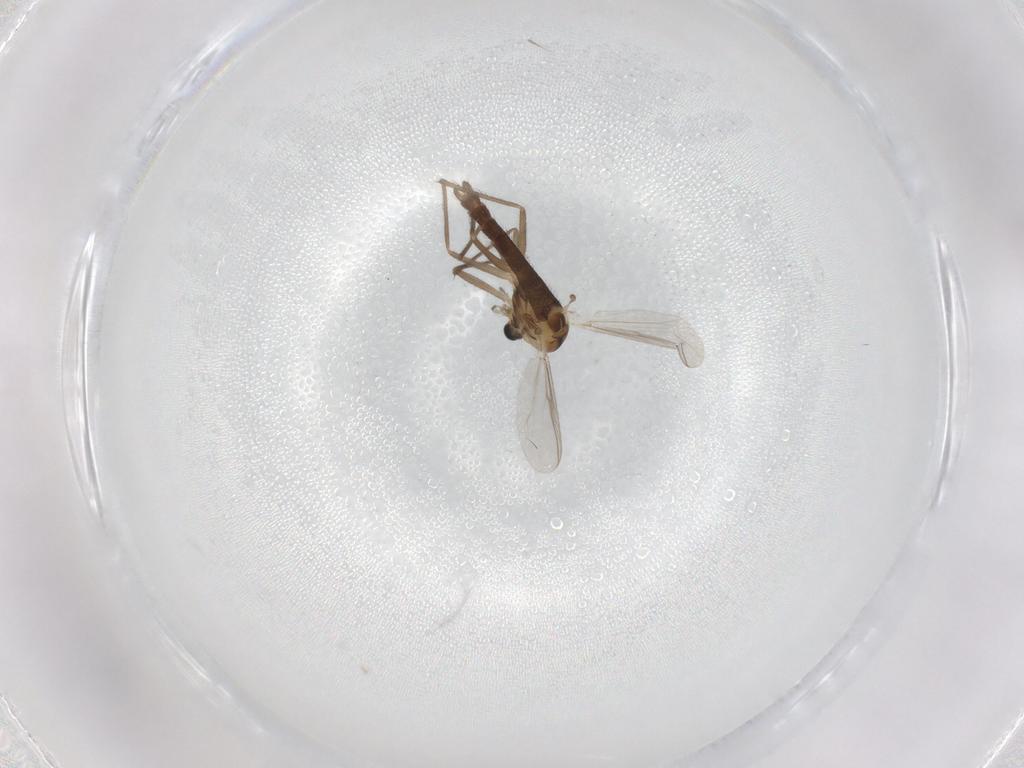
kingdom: Animalia
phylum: Arthropoda
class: Insecta
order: Diptera
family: Chironomidae
